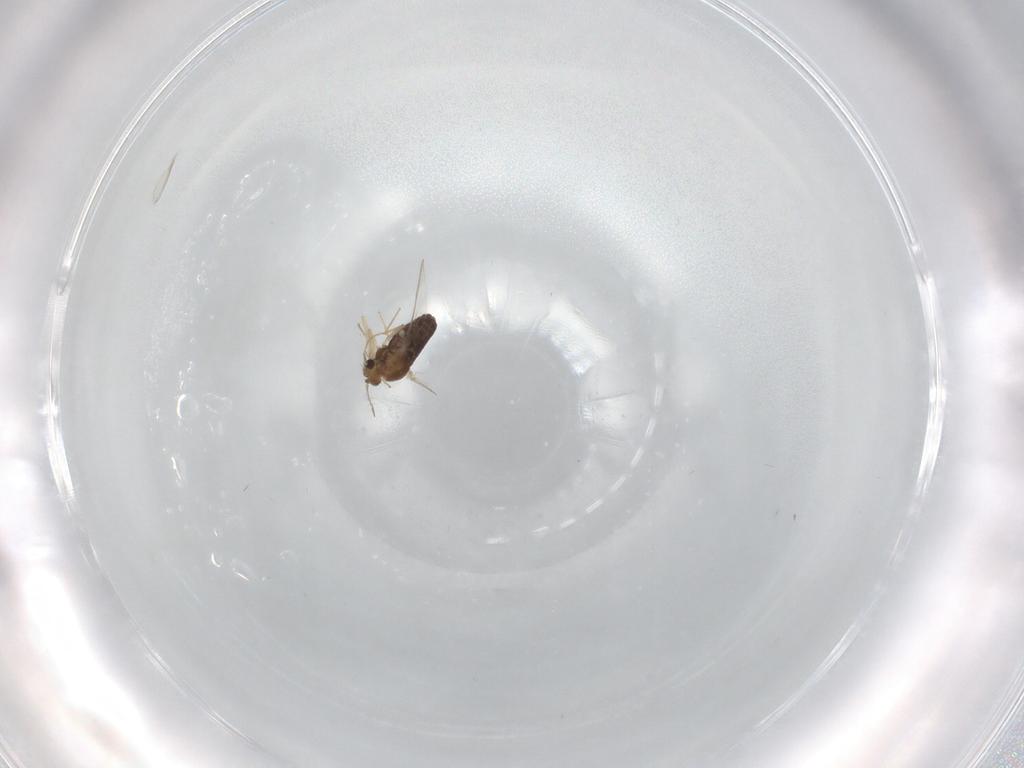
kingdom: Animalia
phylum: Arthropoda
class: Insecta
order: Diptera
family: Chironomidae
